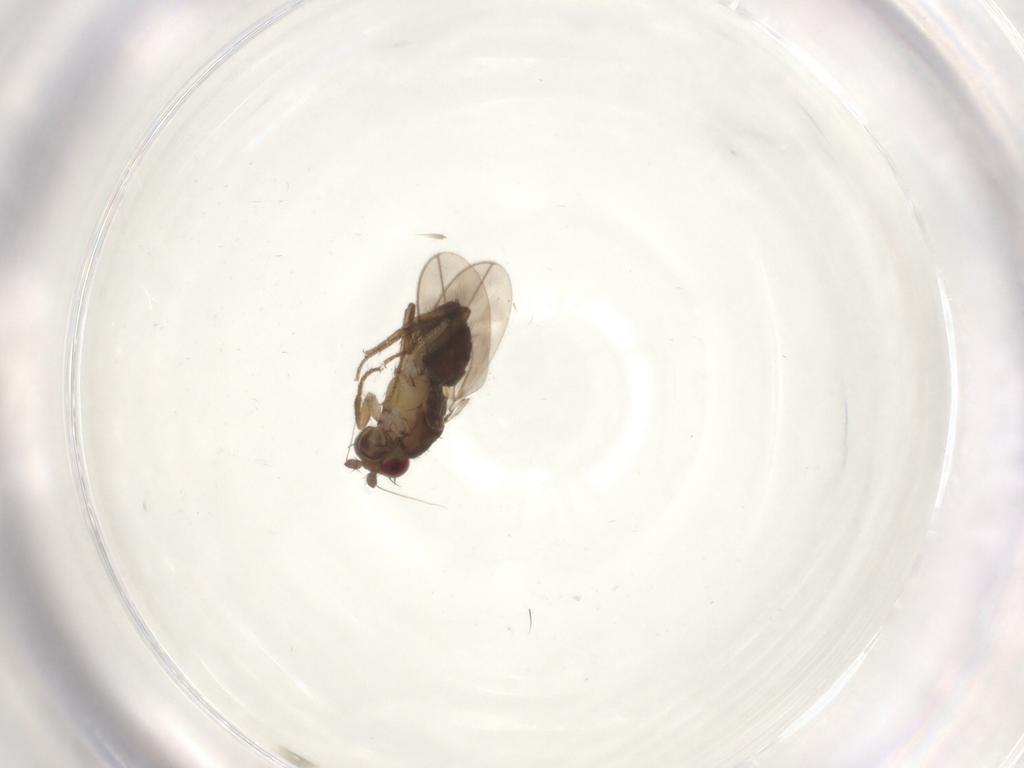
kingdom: Animalia
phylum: Arthropoda
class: Insecta
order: Diptera
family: Sphaeroceridae
